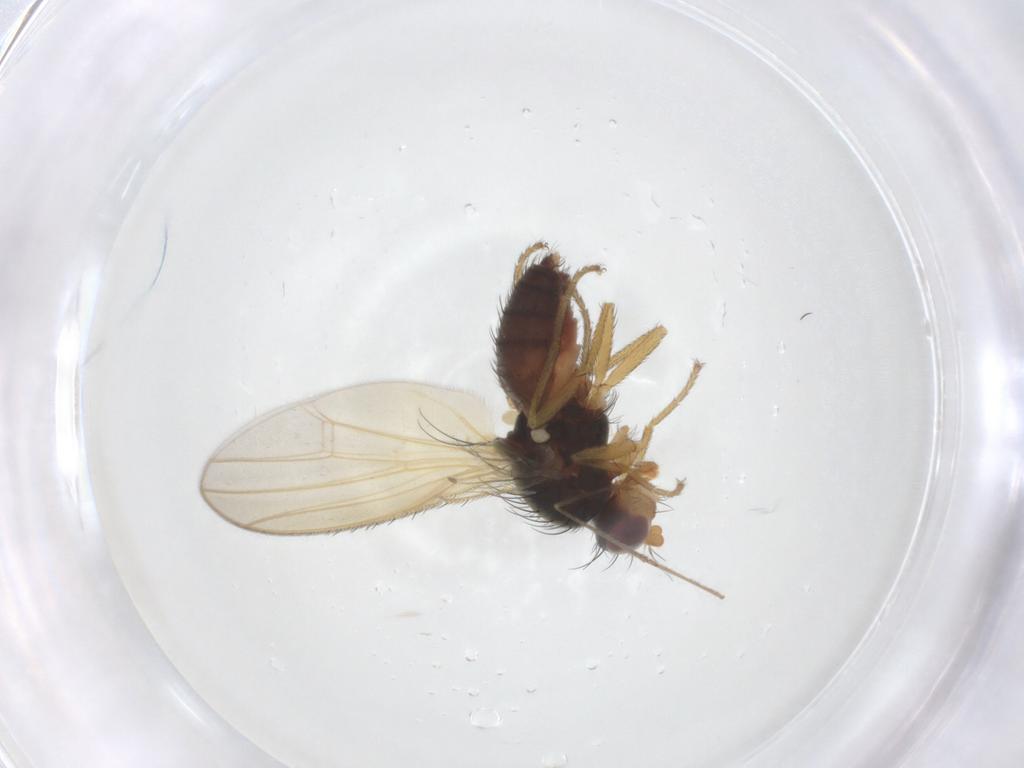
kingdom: Animalia
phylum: Arthropoda
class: Insecta
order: Diptera
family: Heleomyzidae
